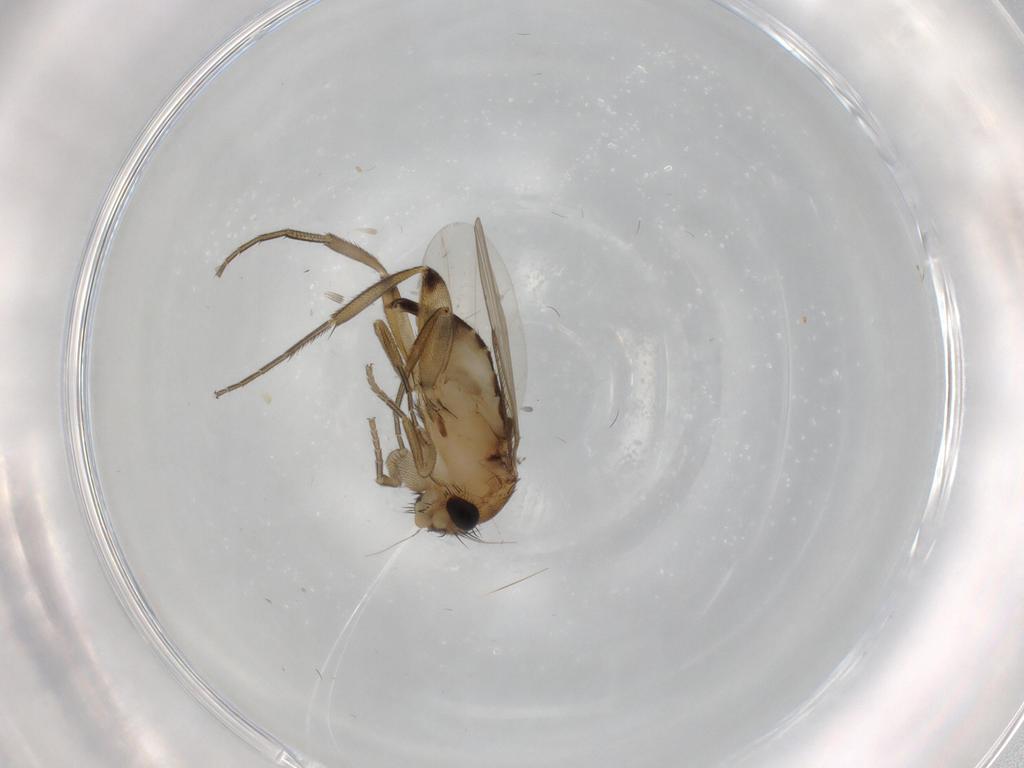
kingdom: Animalia
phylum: Arthropoda
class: Insecta
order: Diptera
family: Phoridae
